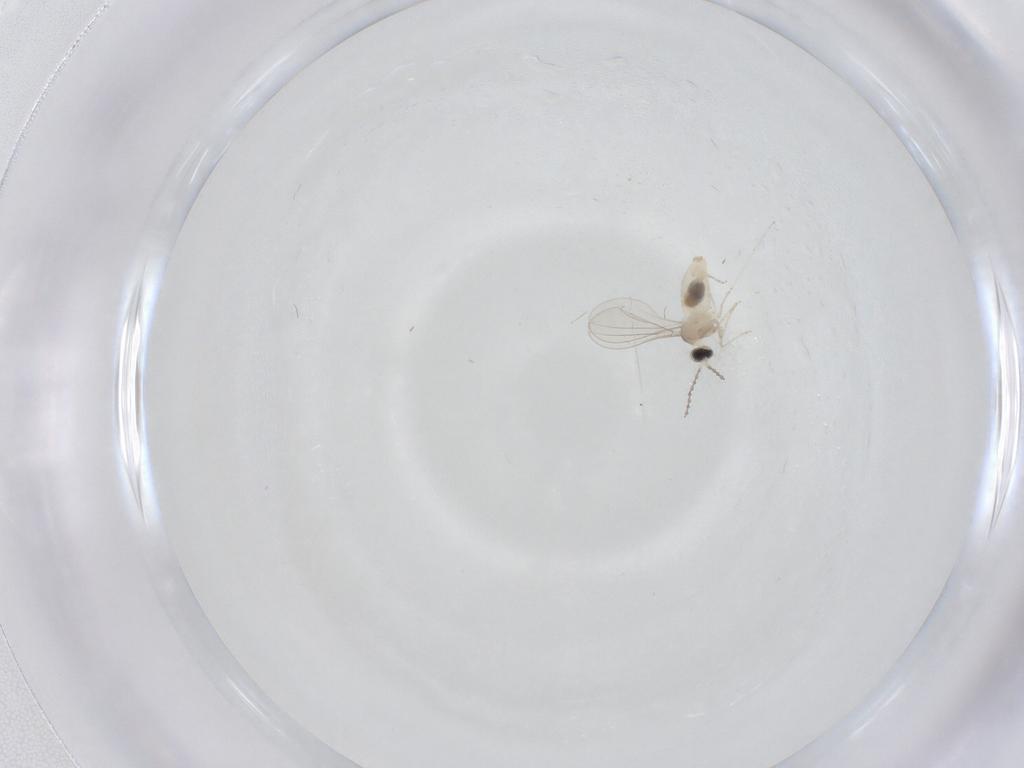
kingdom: Animalia
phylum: Arthropoda
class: Insecta
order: Diptera
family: Cecidomyiidae
